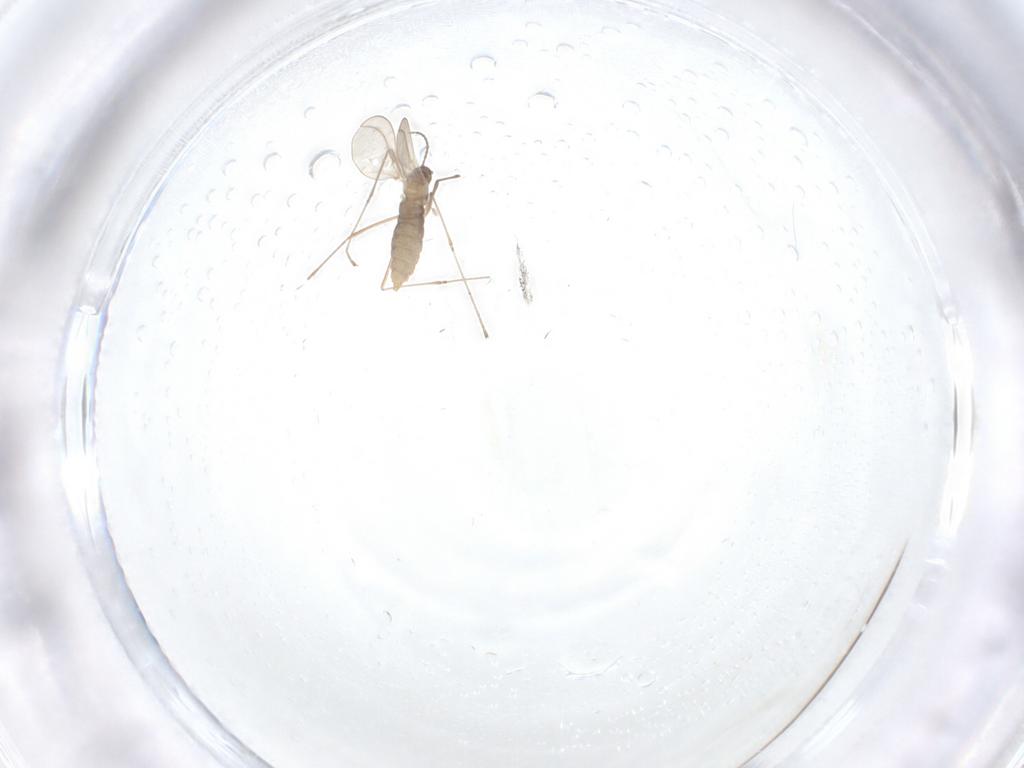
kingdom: Animalia
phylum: Arthropoda
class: Insecta
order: Diptera
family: Cecidomyiidae
